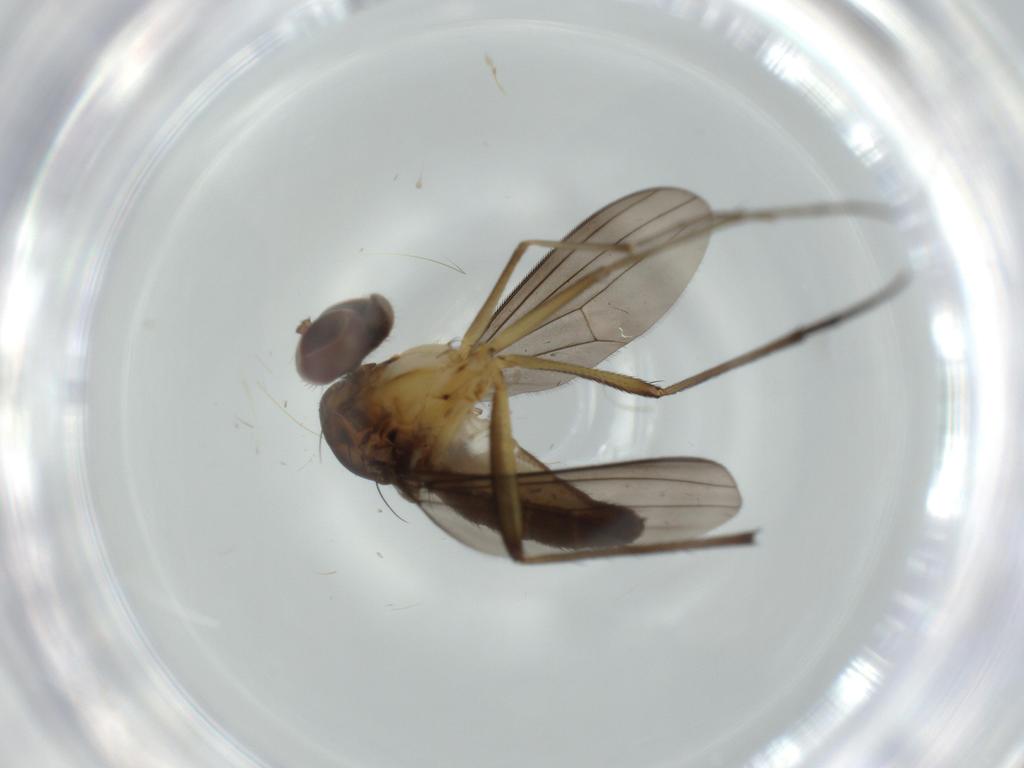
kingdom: Animalia
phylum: Arthropoda
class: Insecta
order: Diptera
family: Dolichopodidae
